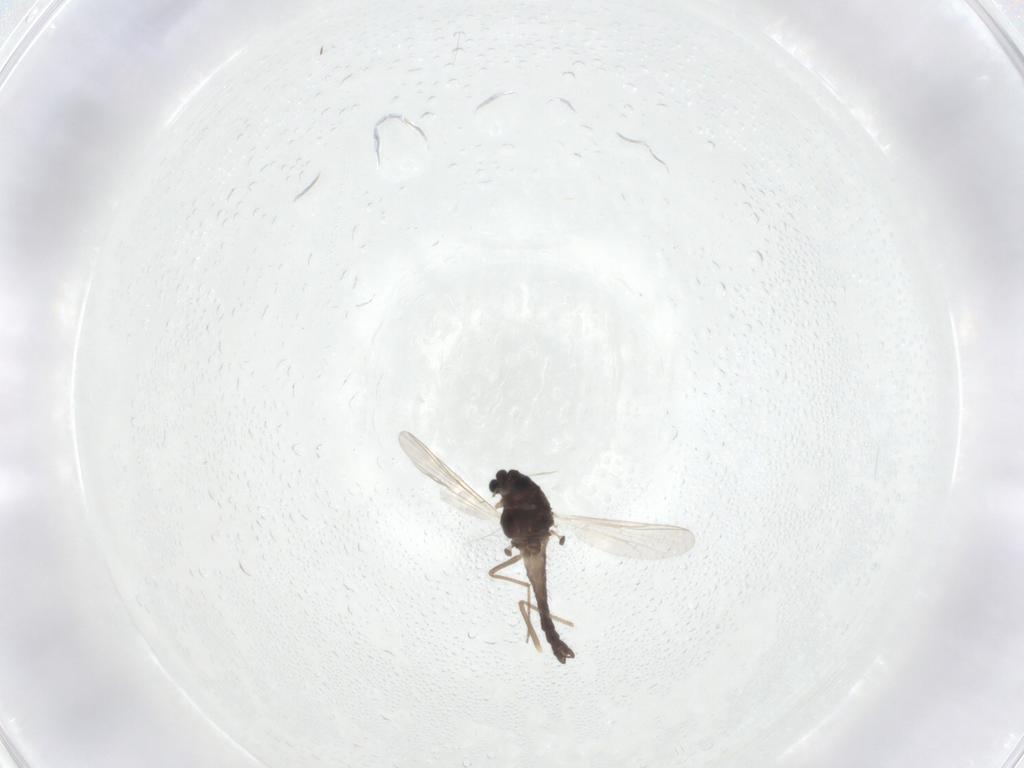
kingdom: Animalia
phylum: Arthropoda
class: Insecta
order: Diptera
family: Chironomidae
